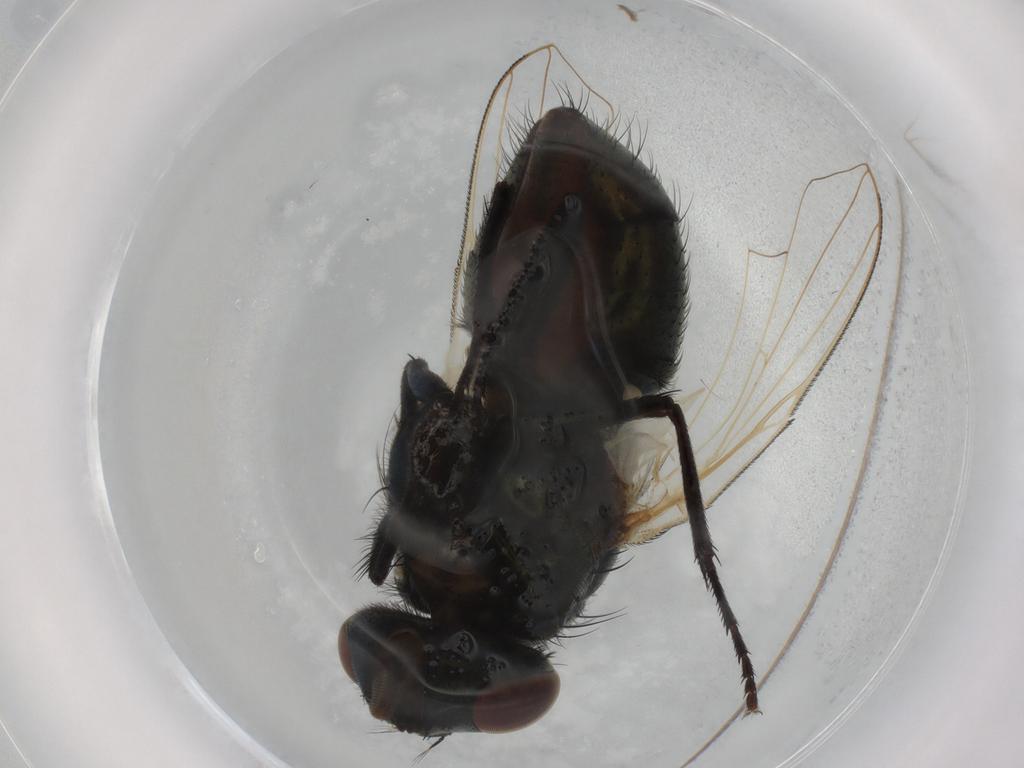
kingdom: Animalia
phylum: Arthropoda
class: Insecta
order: Diptera
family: Muscidae
